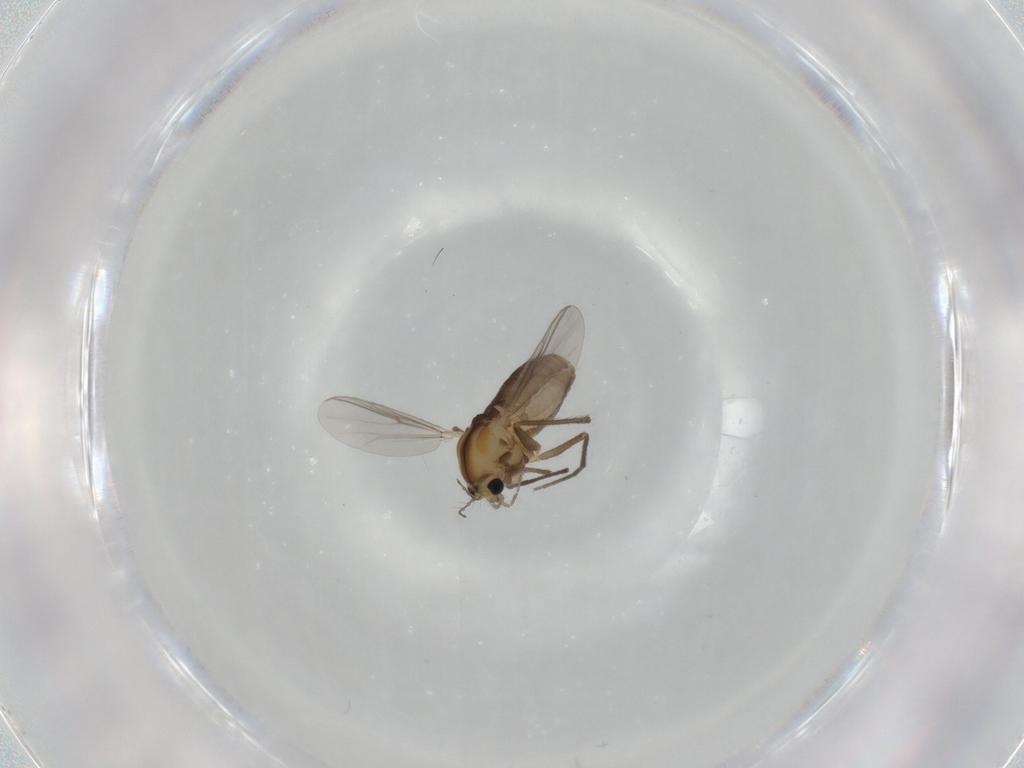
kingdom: Animalia
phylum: Arthropoda
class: Insecta
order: Diptera
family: Chironomidae
